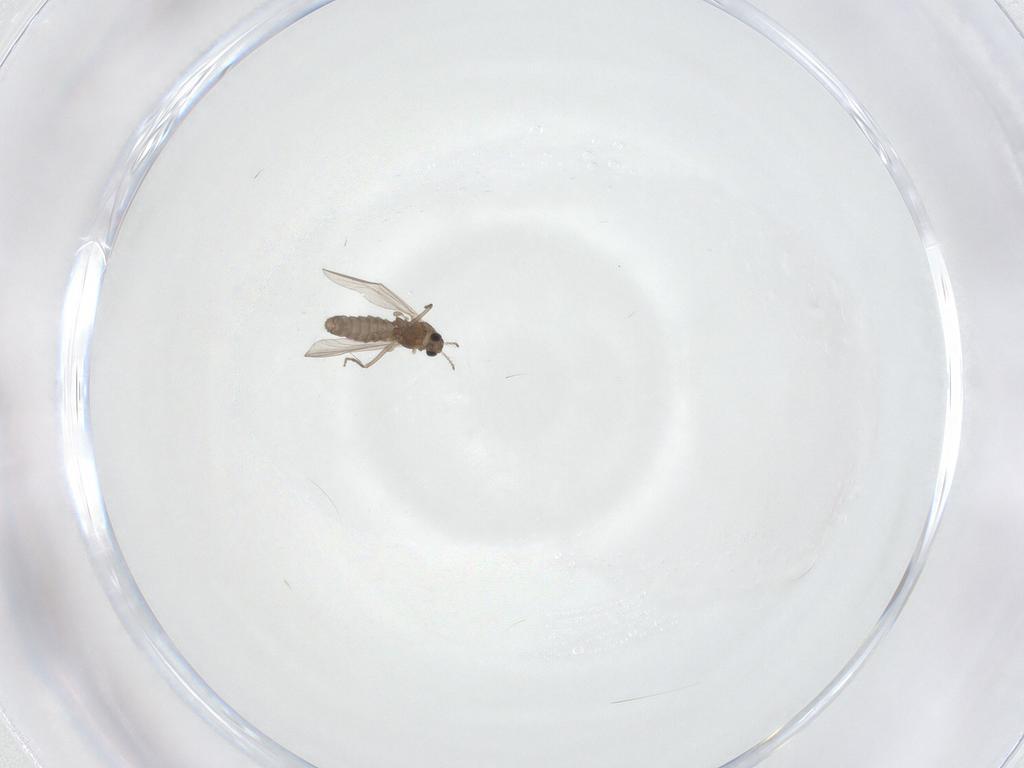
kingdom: Animalia
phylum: Arthropoda
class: Insecta
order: Diptera
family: Chironomidae
